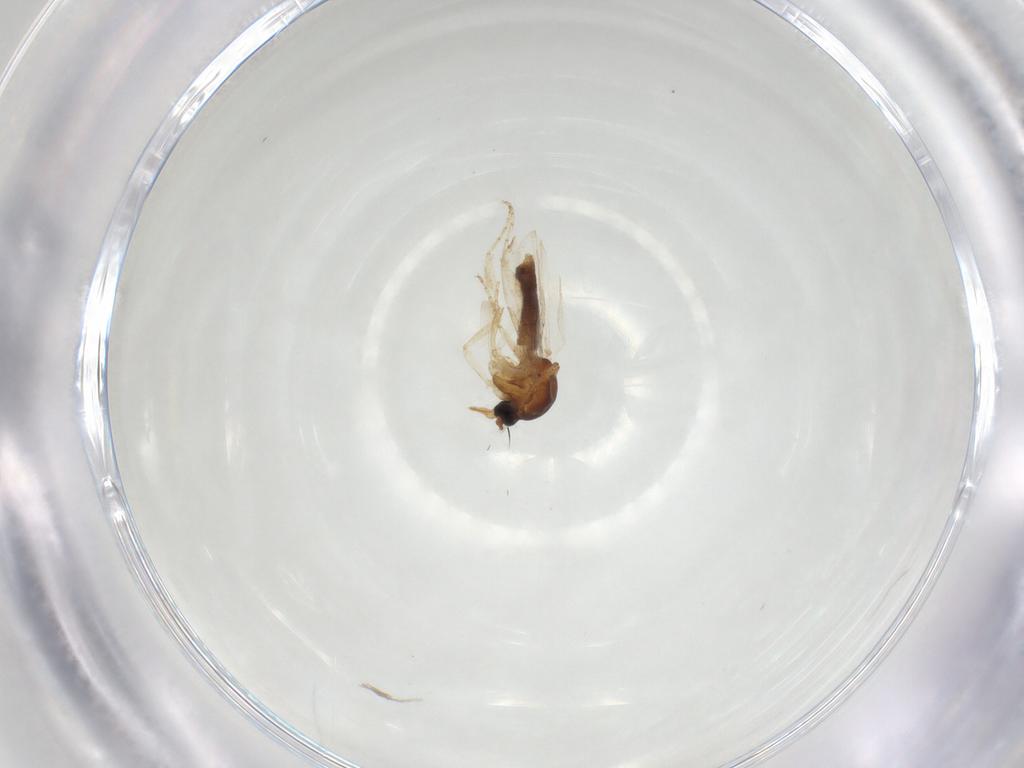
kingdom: Animalia
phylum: Arthropoda
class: Insecta
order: Diptera
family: Ceratopogonidae
